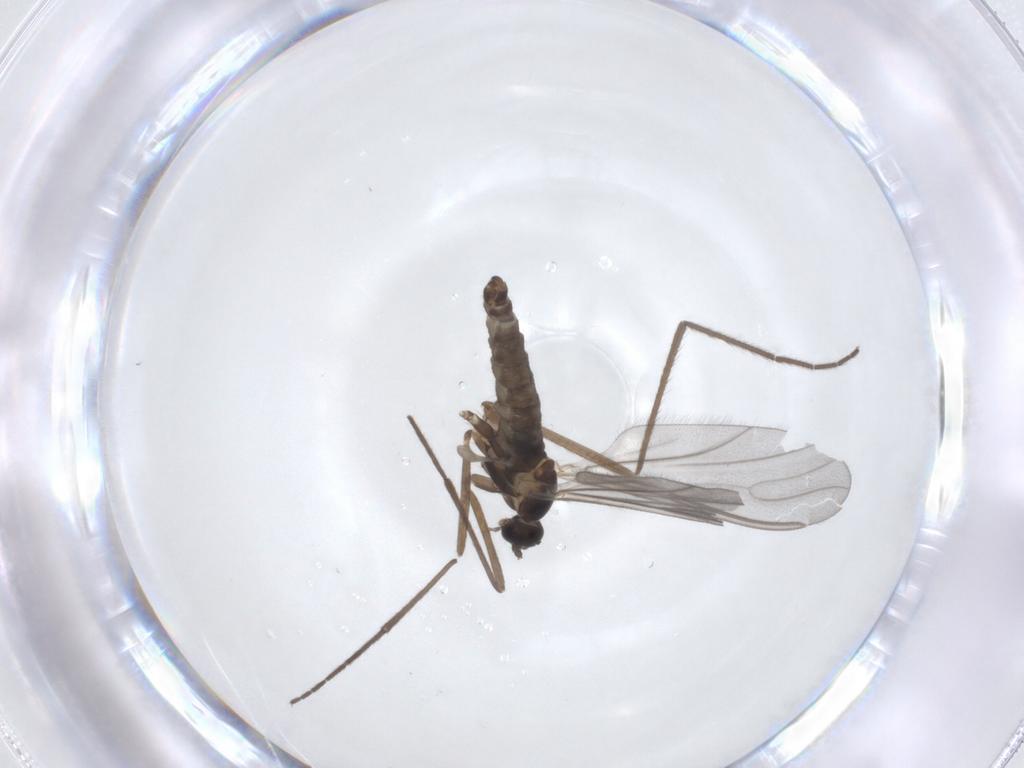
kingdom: Animalia
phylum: Arthropoda
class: Insecta
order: Diptera
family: Cecidomyiidae
